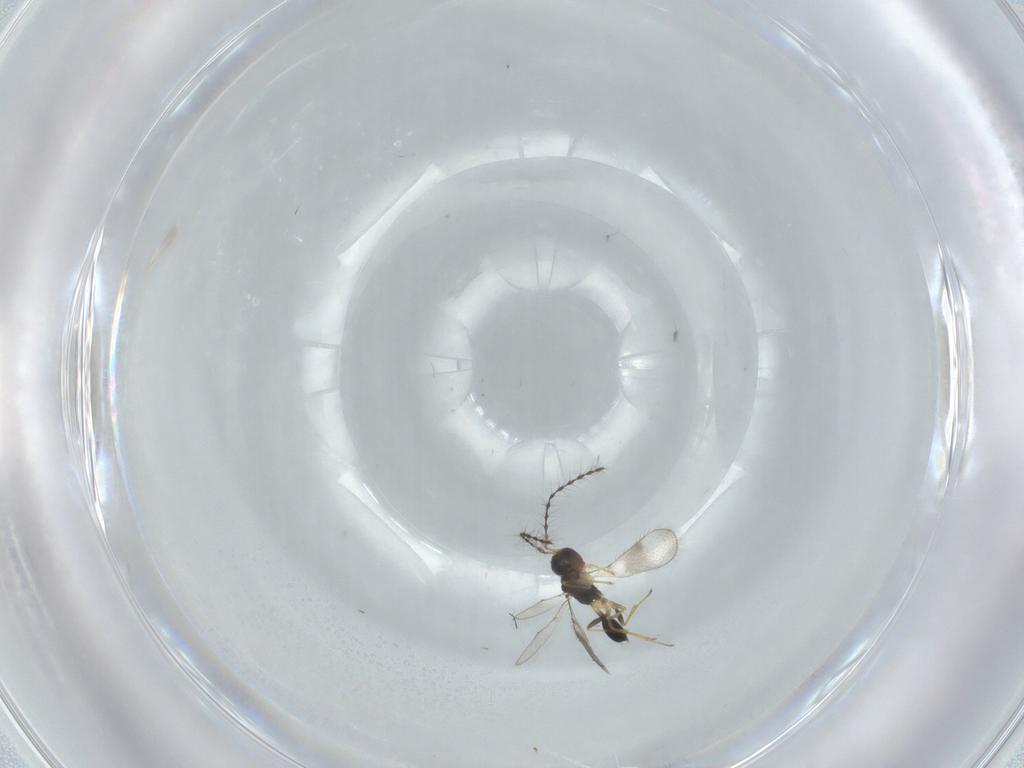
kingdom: Animalia
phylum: Arthropoda
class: Insecta
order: Hymenoptera
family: Diparidae
